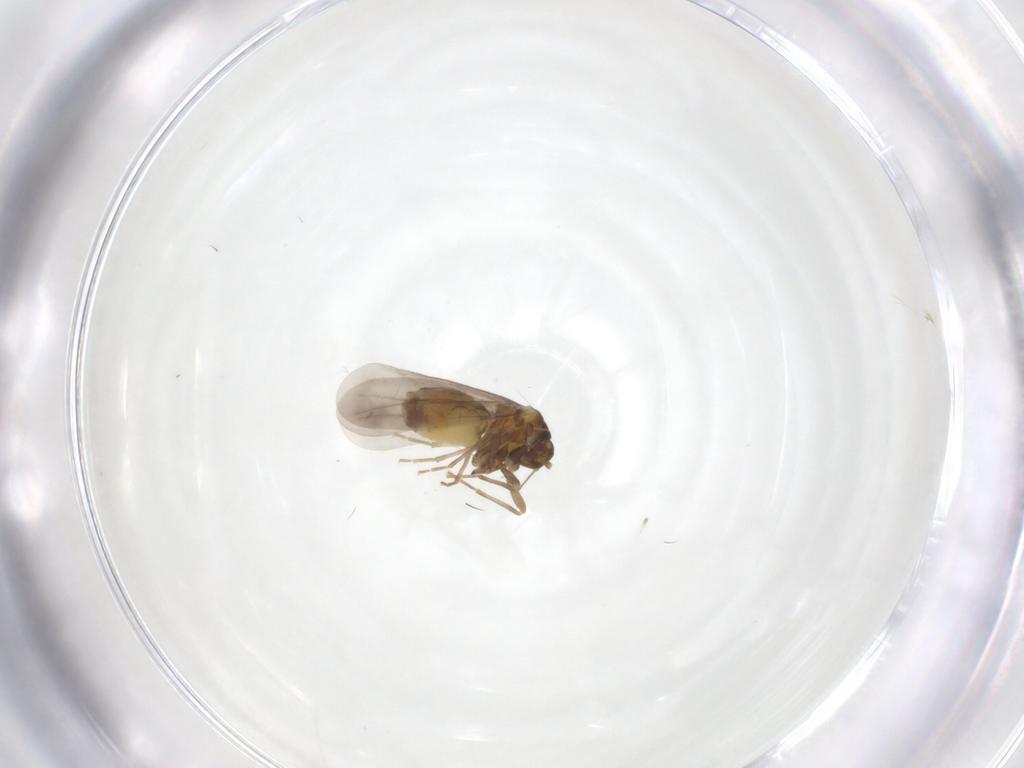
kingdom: Animalia
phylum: Arthropoda
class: Insecta
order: Hemiptera
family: Aleyrodidae
